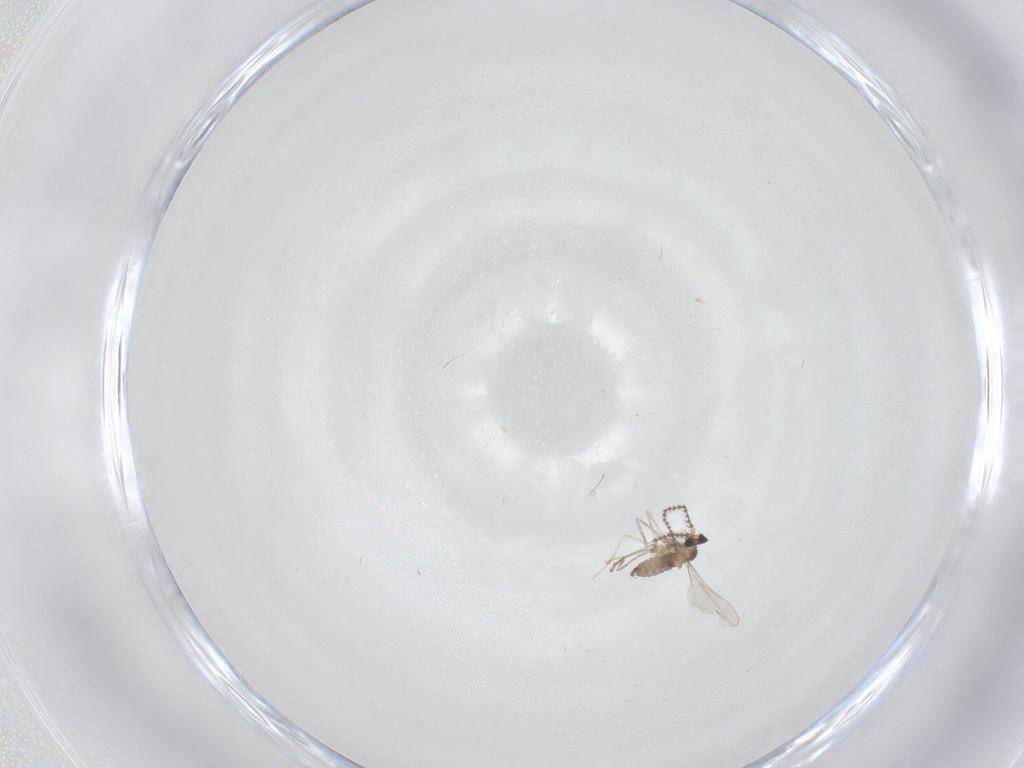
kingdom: Animalia
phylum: Arthropoda
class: Insecta
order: Diptera
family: Cecidomyiidae
